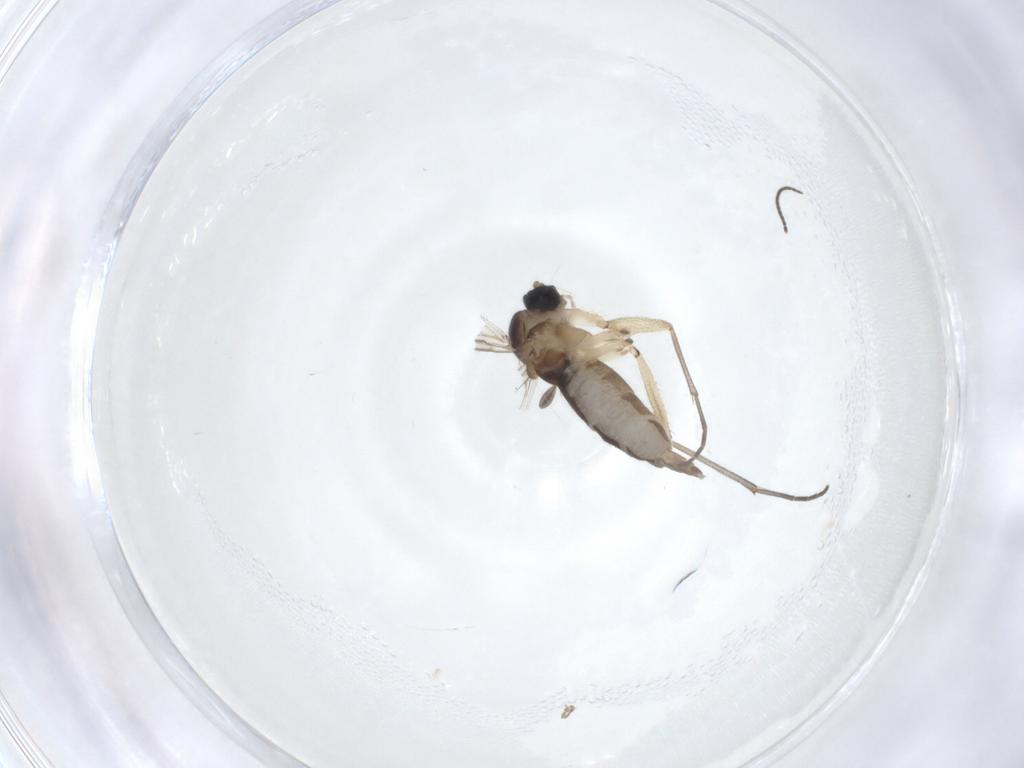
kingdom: Animalia
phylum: Arthropoda
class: Insecta
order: Diptera
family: Sciaridae
